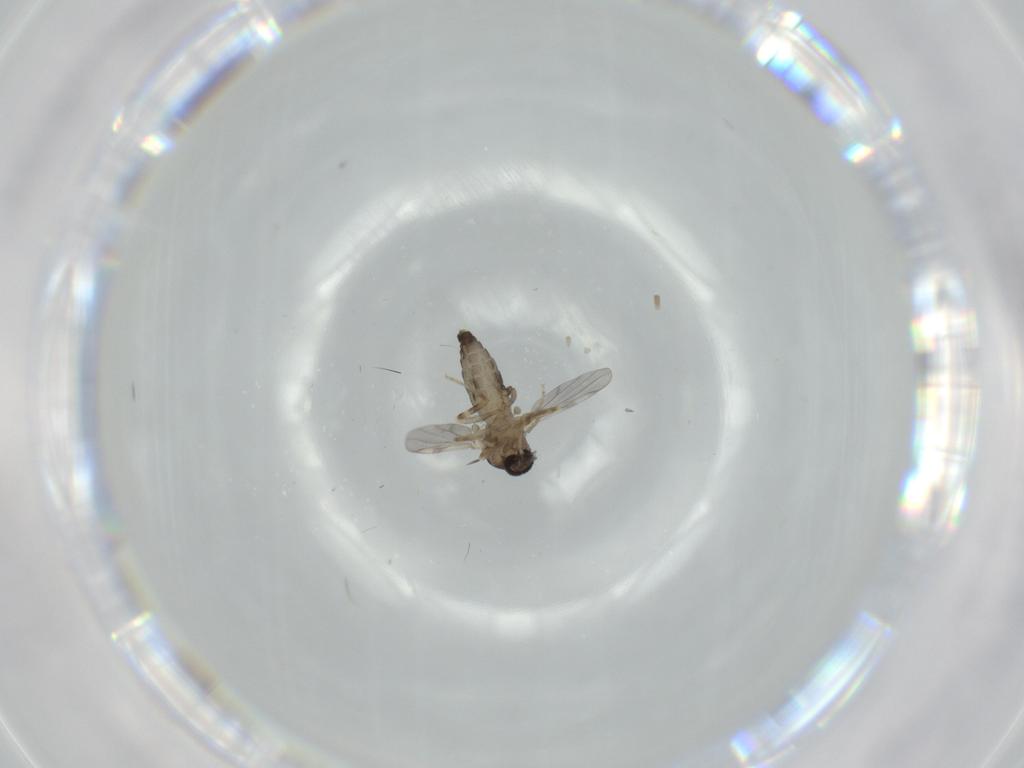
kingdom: Animalia
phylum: Arthropoda
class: Insecta
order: Diptera
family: Ceratopogonidae
